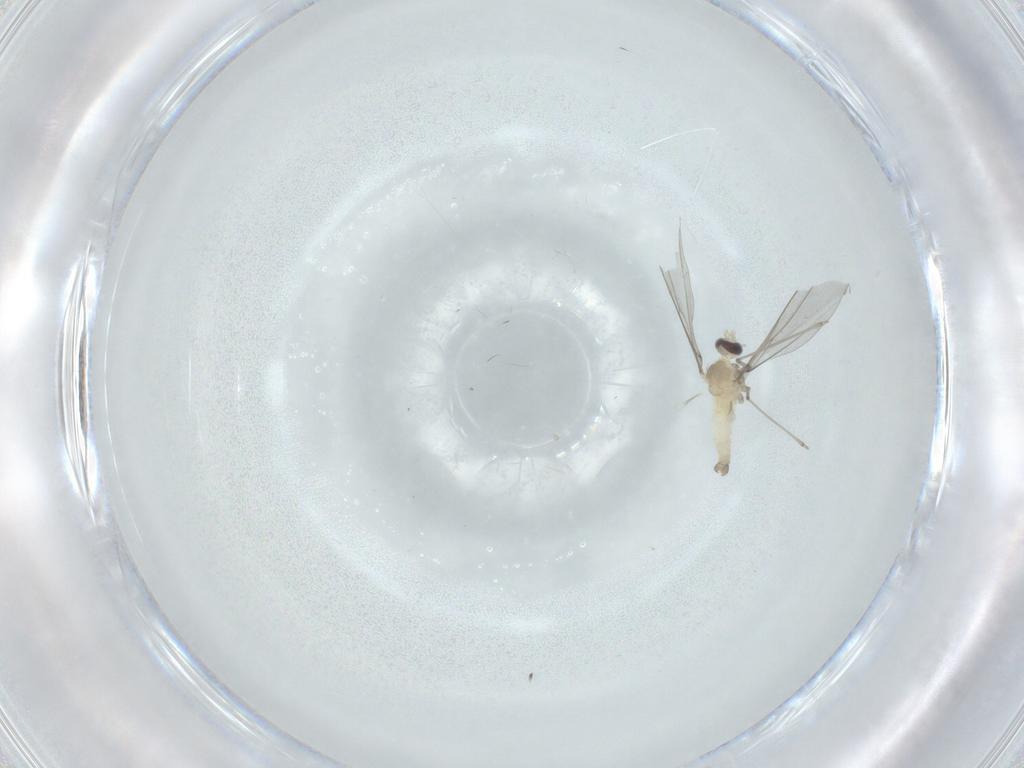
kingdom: Animalia
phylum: Arthropoda
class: Insecta
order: Diptera
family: Cecidomyiidae
